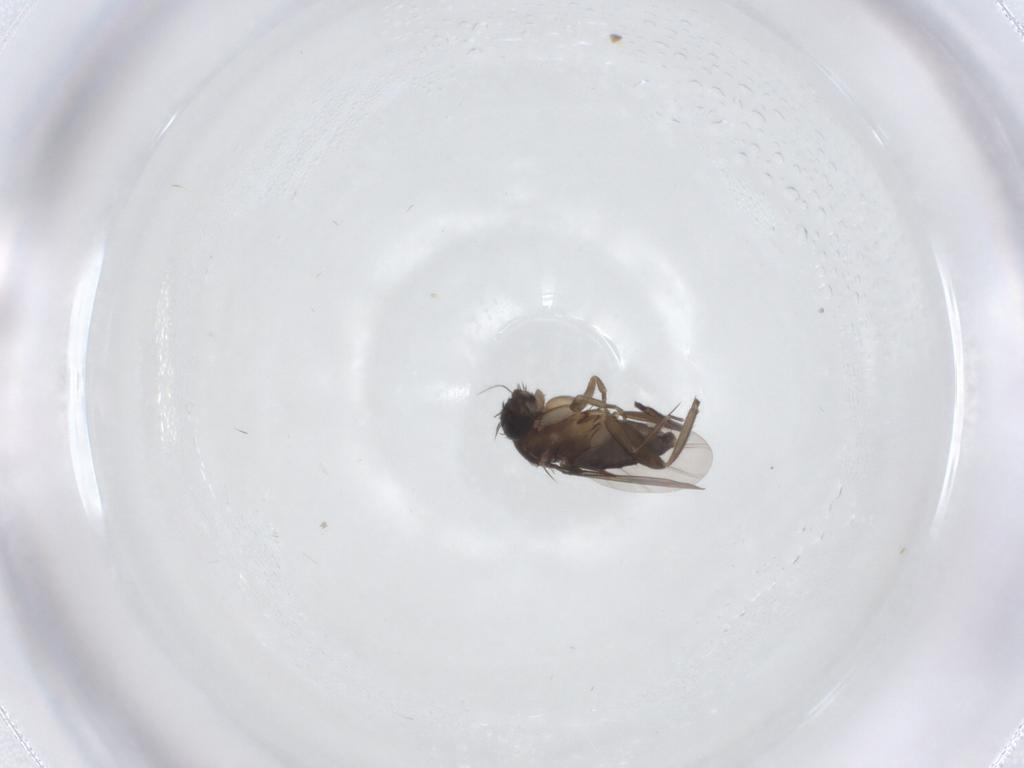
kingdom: Animalia
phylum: Arthropoda
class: Insecta
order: Diptera
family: Phoridae
